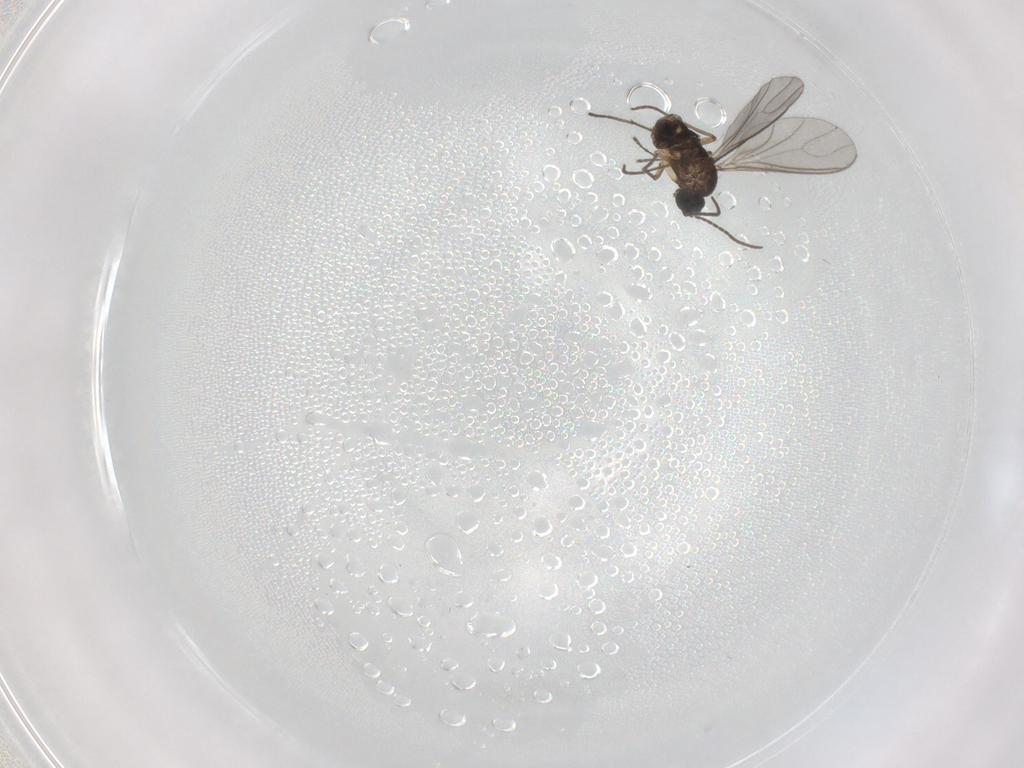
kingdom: Animalia
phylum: Arthropoda
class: Insecta
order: Diptera
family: Sciaridae
